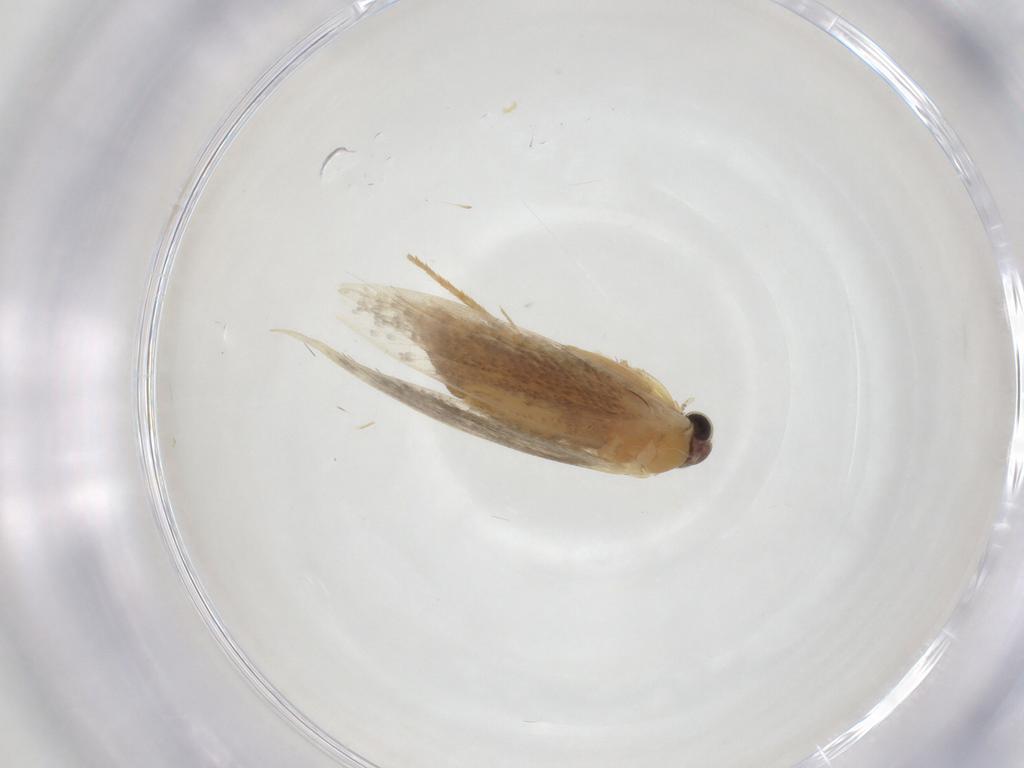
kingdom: Animalia
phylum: Arthropoda
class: Insecta
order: Lepidoptera
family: Tineidae
